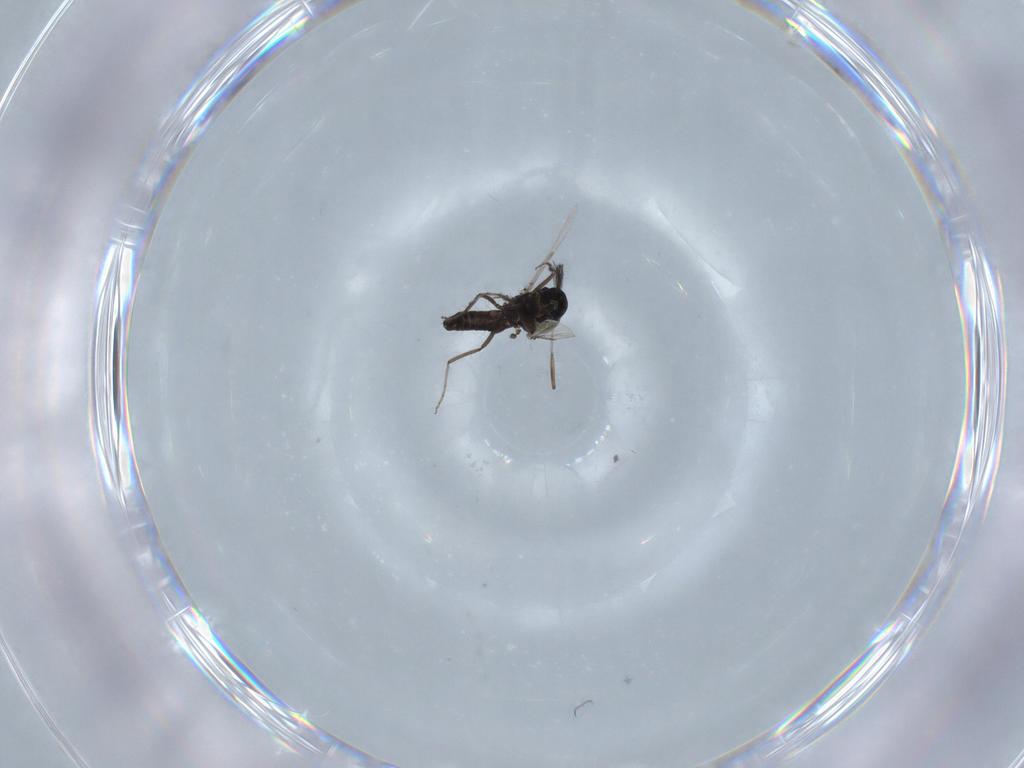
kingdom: Animalia
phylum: Arthropoda
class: Insecta
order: Diptera
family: Ceratopogonidae
